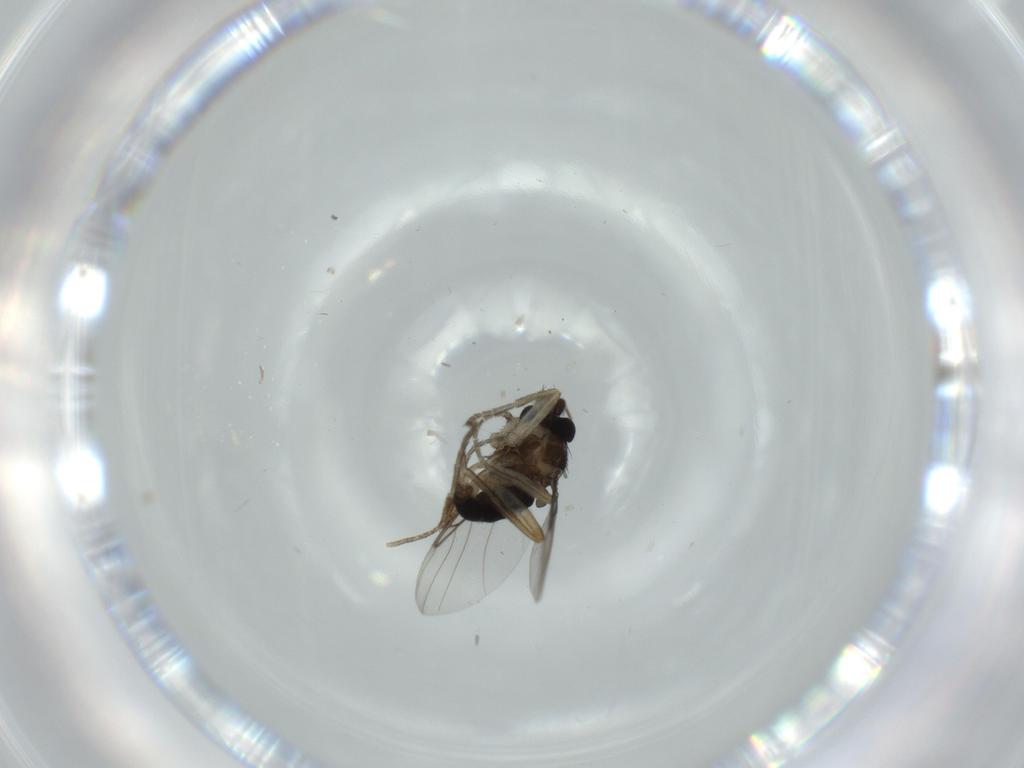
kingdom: Animalia
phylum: Arthropoda
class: Insecta
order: Diptera
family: Phoridae
